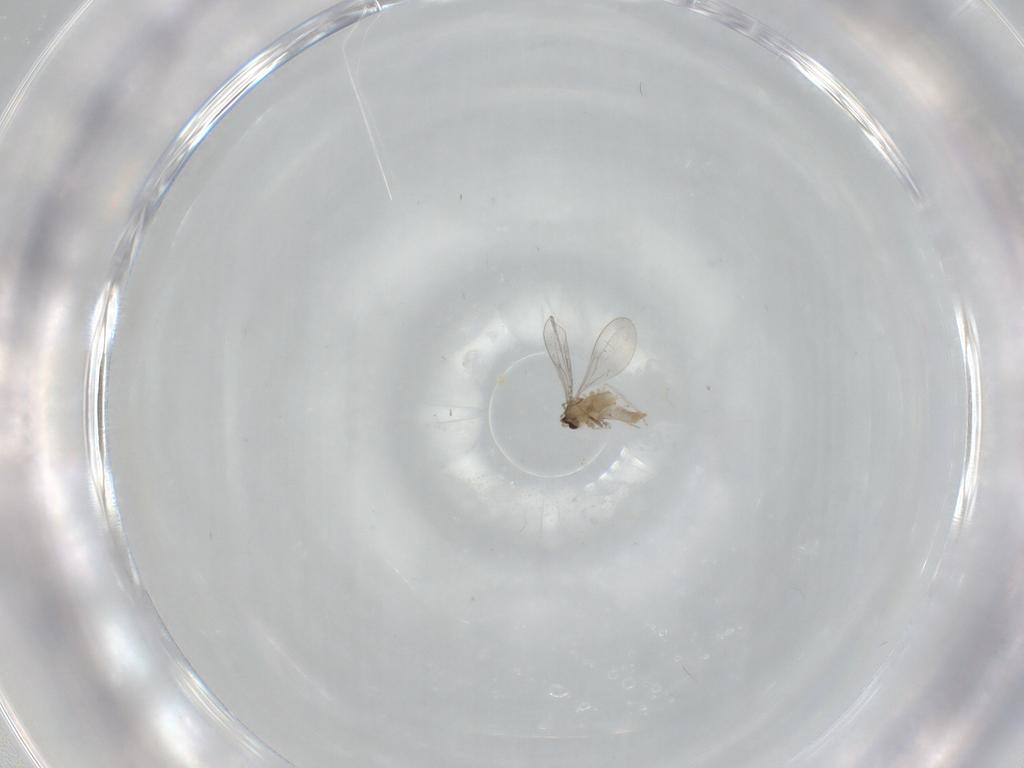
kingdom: Animalia
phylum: Arthropoda
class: Insecta
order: Diptera
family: Cecidomyiidae
